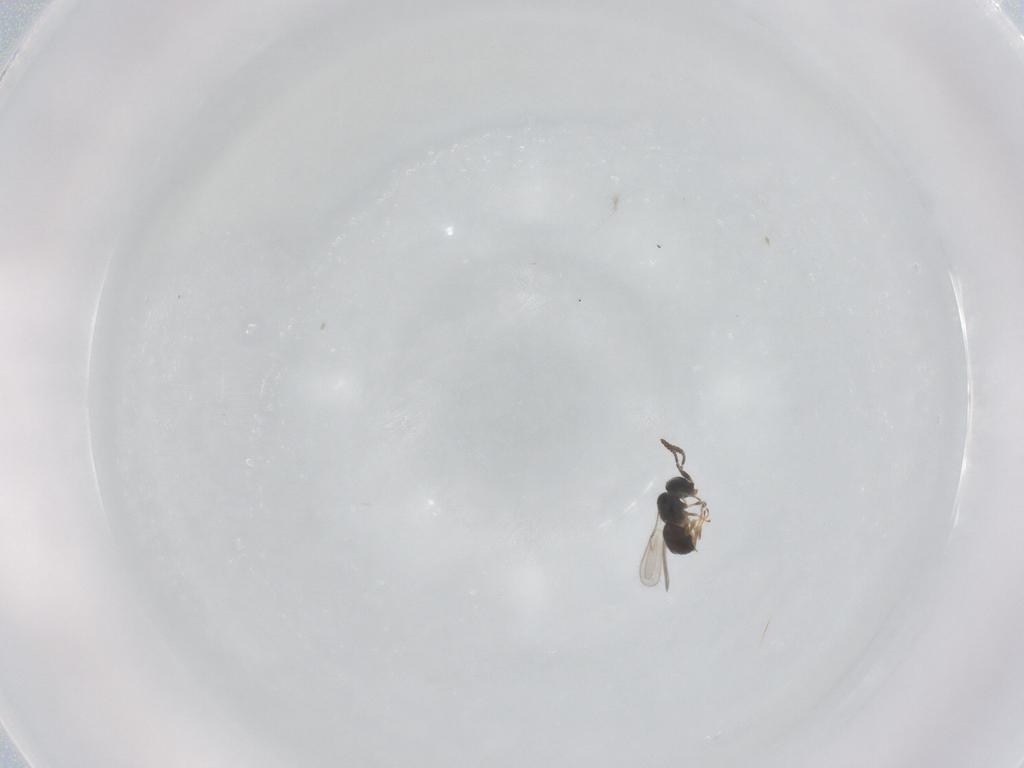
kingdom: Animalia
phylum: Arthropoda
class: Insecta
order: Hymenoptera
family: Scelionidae
